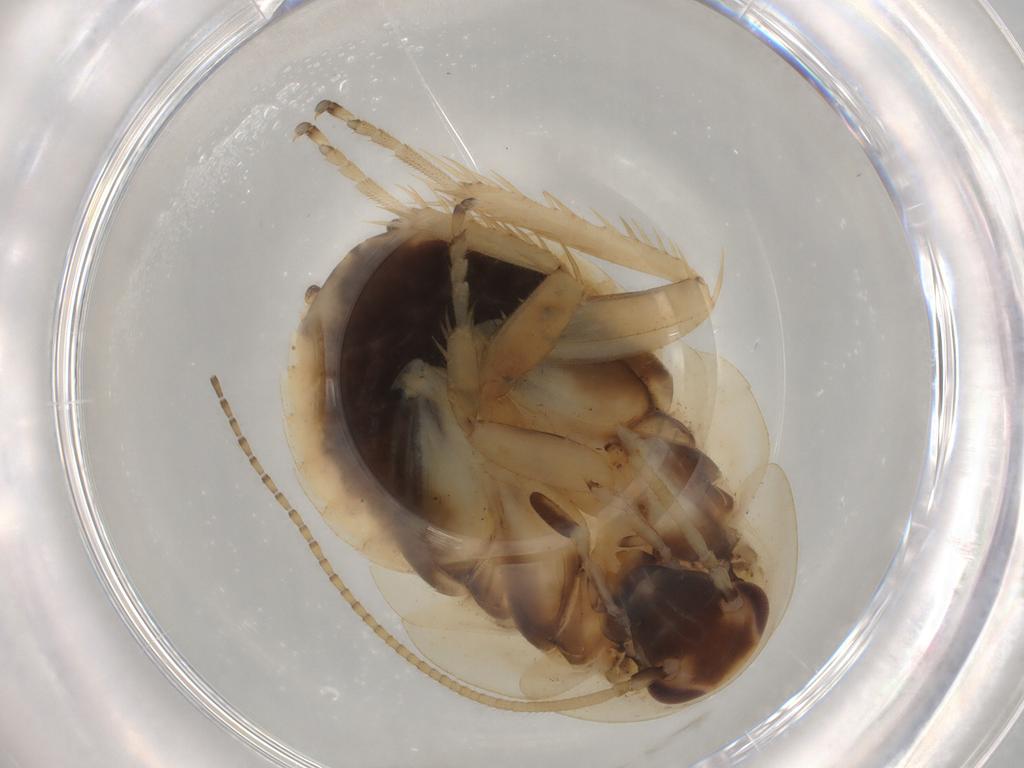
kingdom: Animalia
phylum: Arthropoda
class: Insecta
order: Blattodea
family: Ectobiidae
